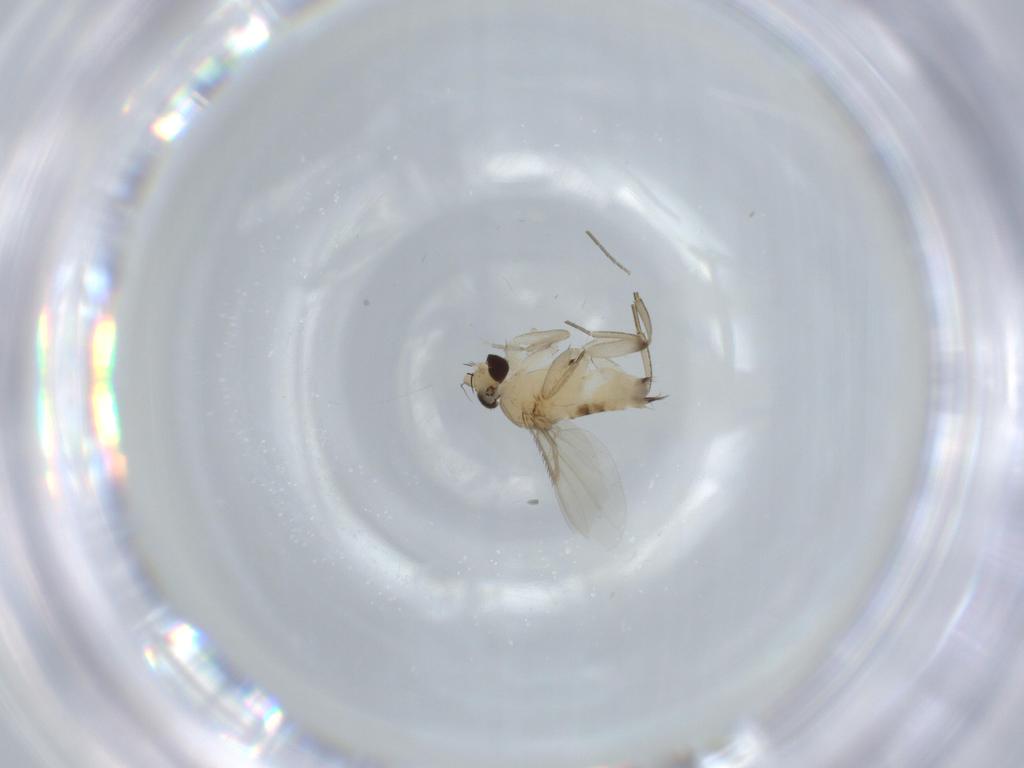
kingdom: Animalia
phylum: Arthropoda
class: Insecta
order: Diptera
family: Phoridae
